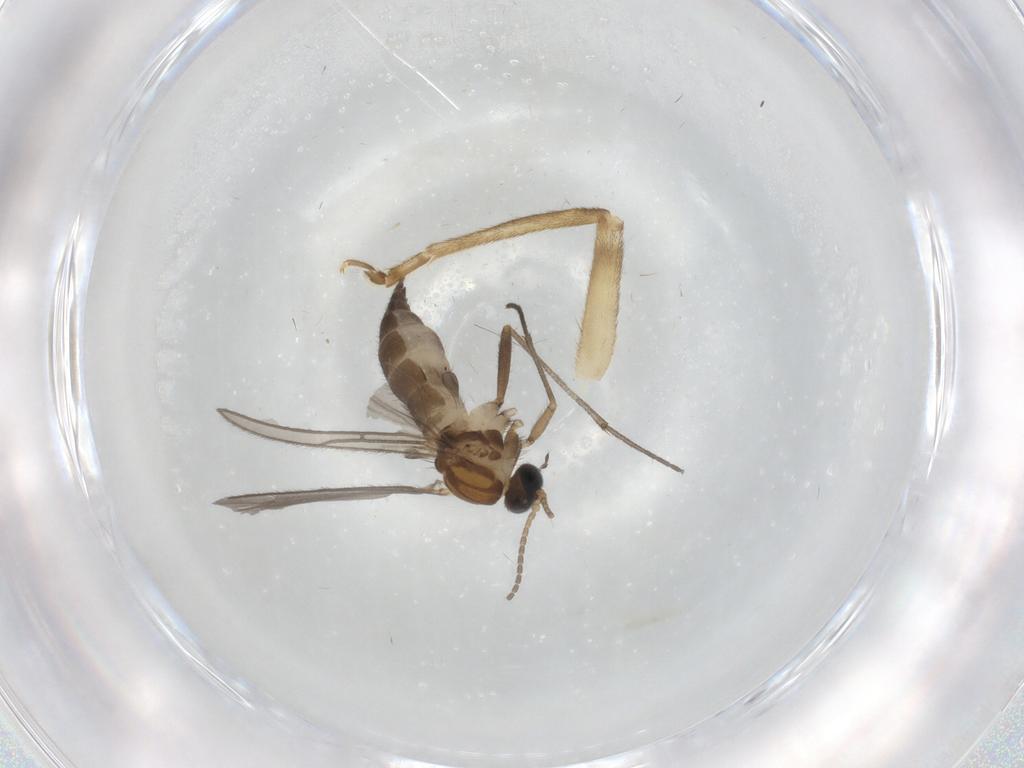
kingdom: Animalia
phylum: Arthropoda
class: Insecta
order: Diptera
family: Sciaridae
